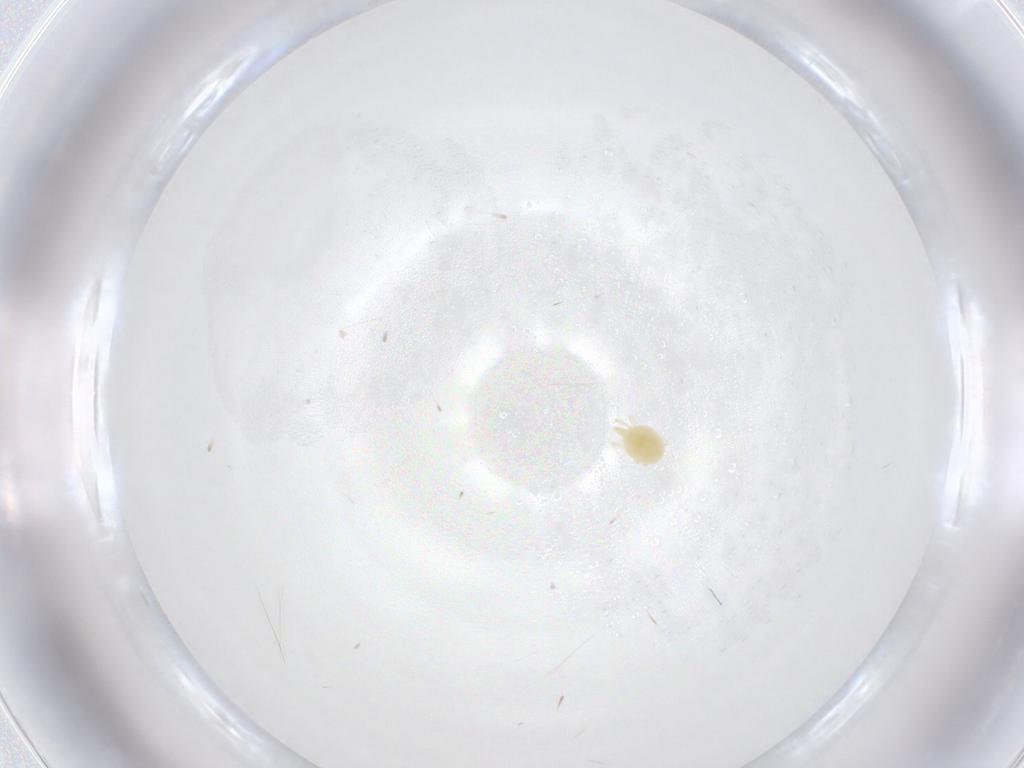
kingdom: Animalia
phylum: Arthropoda
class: Arachnida
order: Trombidiformes
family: Tetranychidae
